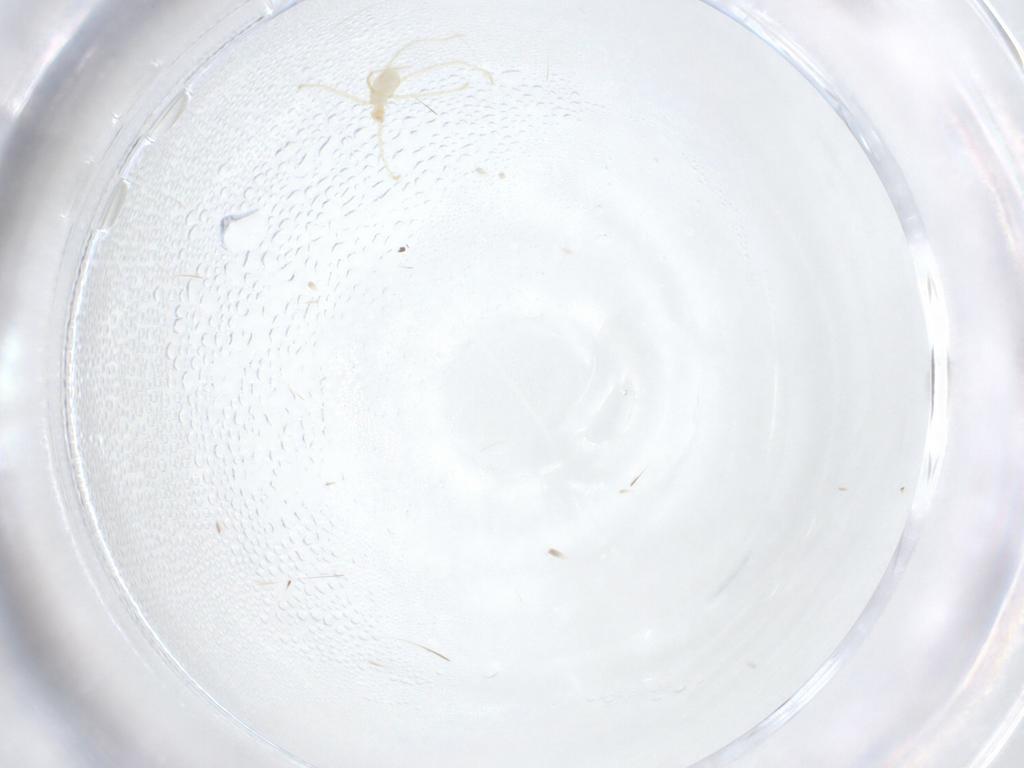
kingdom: Animalia
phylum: Arthropoda
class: Arachnida
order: Trombidiformes
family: Erythraeidae
